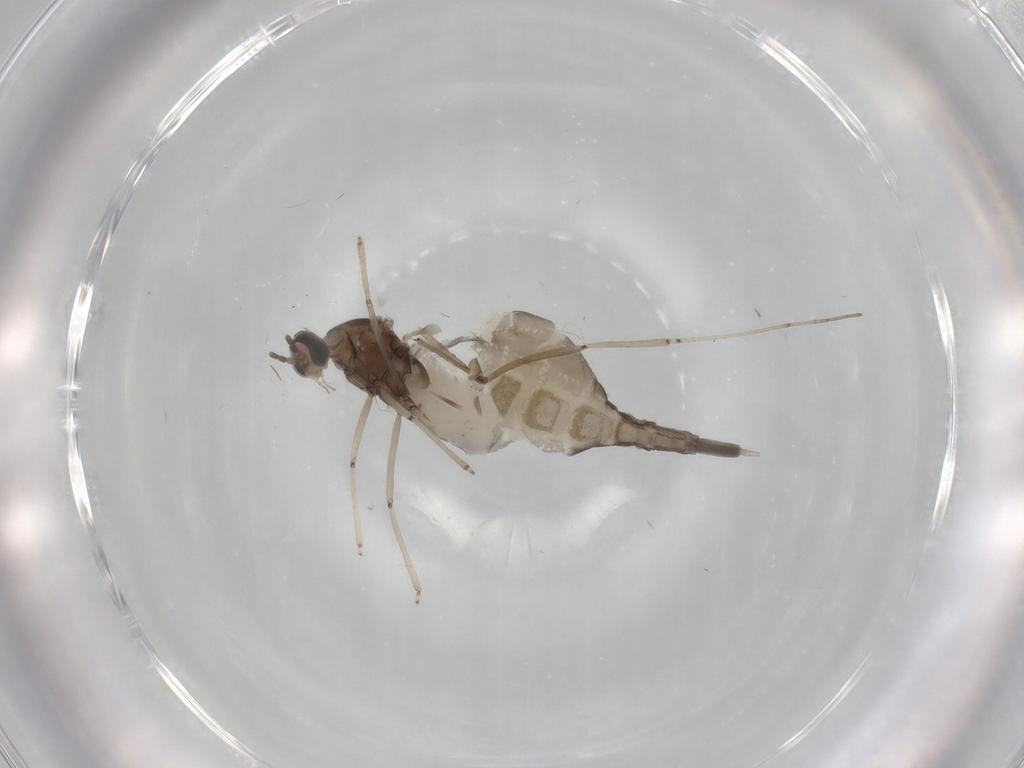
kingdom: Animalia
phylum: Arthropoda
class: Insecta
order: Diptera
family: Cecidomyiidae
